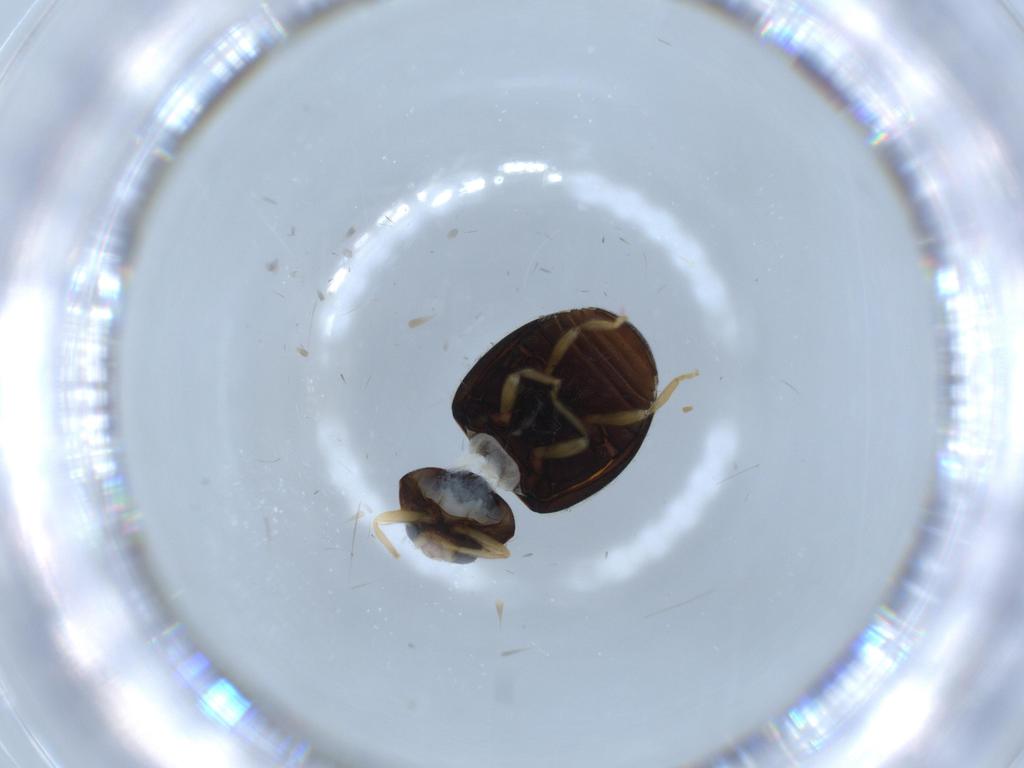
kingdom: Animalia
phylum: Arthropoda
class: Insecta
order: Coleoptera
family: Coccinellidae
